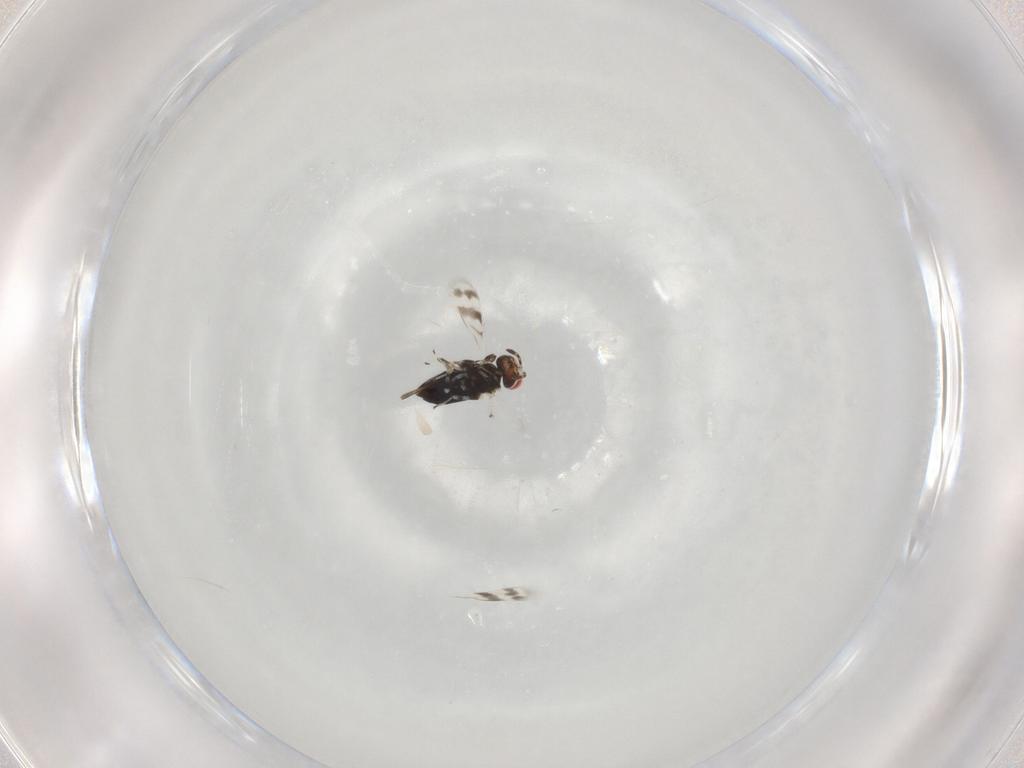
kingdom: Animalia
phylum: Arthropoda
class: Insecta
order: Hymenoptera
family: Azotidae
